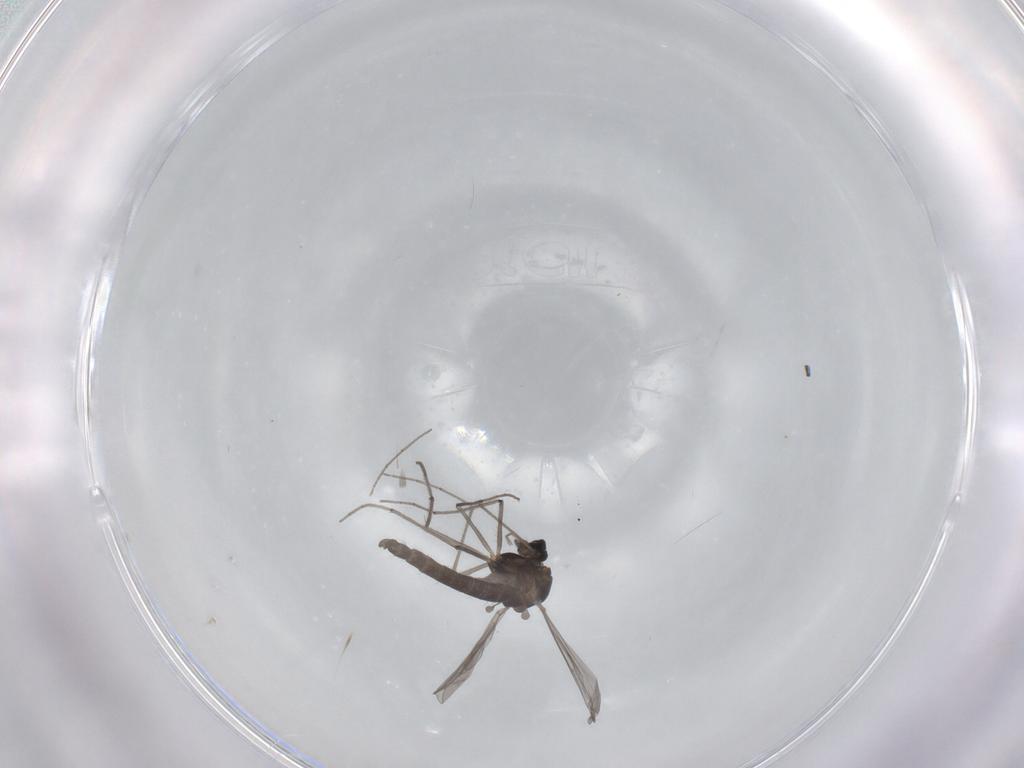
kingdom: Animalia
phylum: Arthropoda
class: Insecta
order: Diptera
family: Chironomidae
